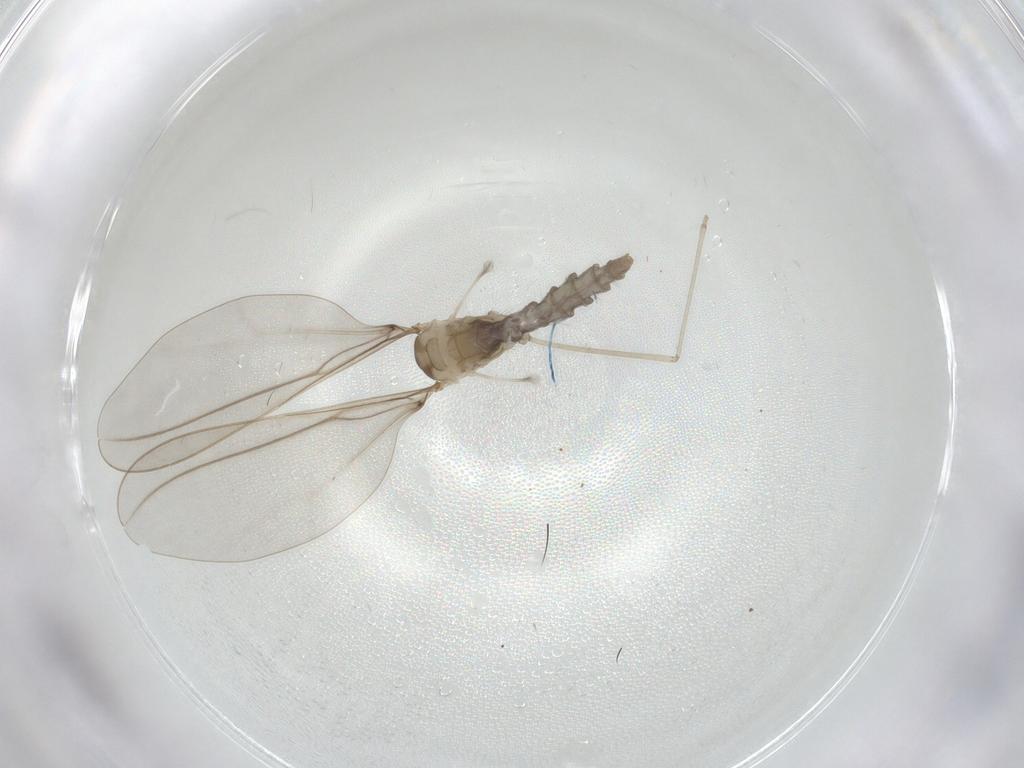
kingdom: Animalia
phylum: Arthropoda
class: Insecta
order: Diptera
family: Cecidomyiidae
